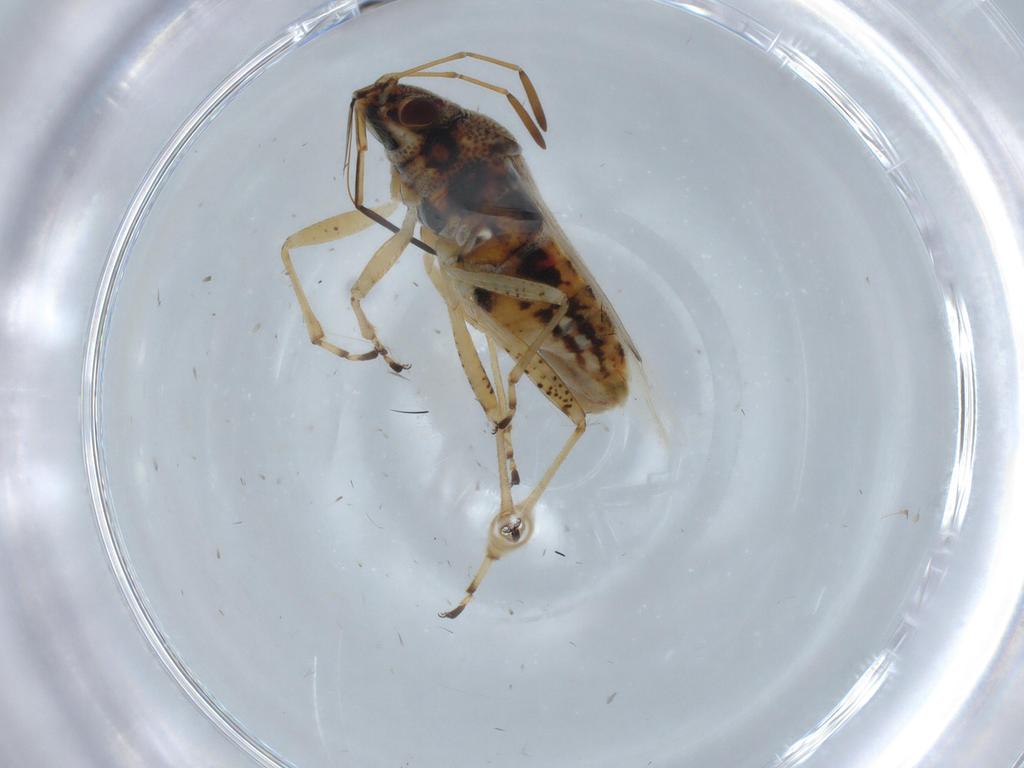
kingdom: Animalia
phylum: Arthropoda
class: Insecta
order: Hemiptera
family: Lygaeidae
